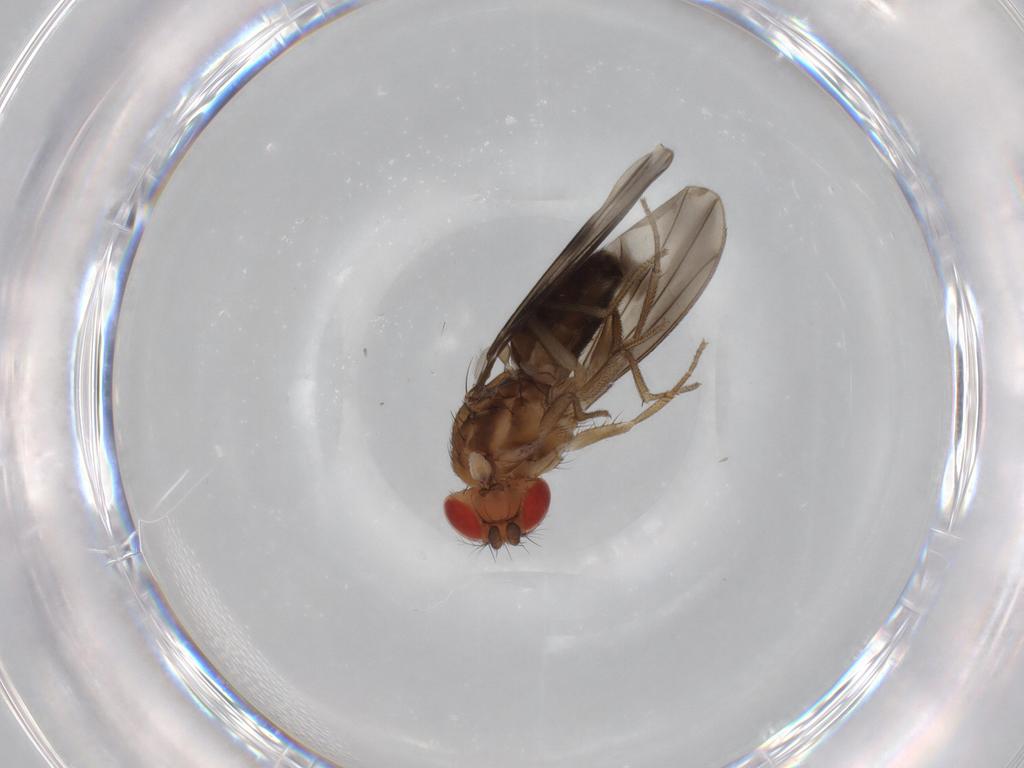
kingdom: Animalia
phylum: Arthropoda
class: Insecta
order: Diptera
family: Drosophilidae
